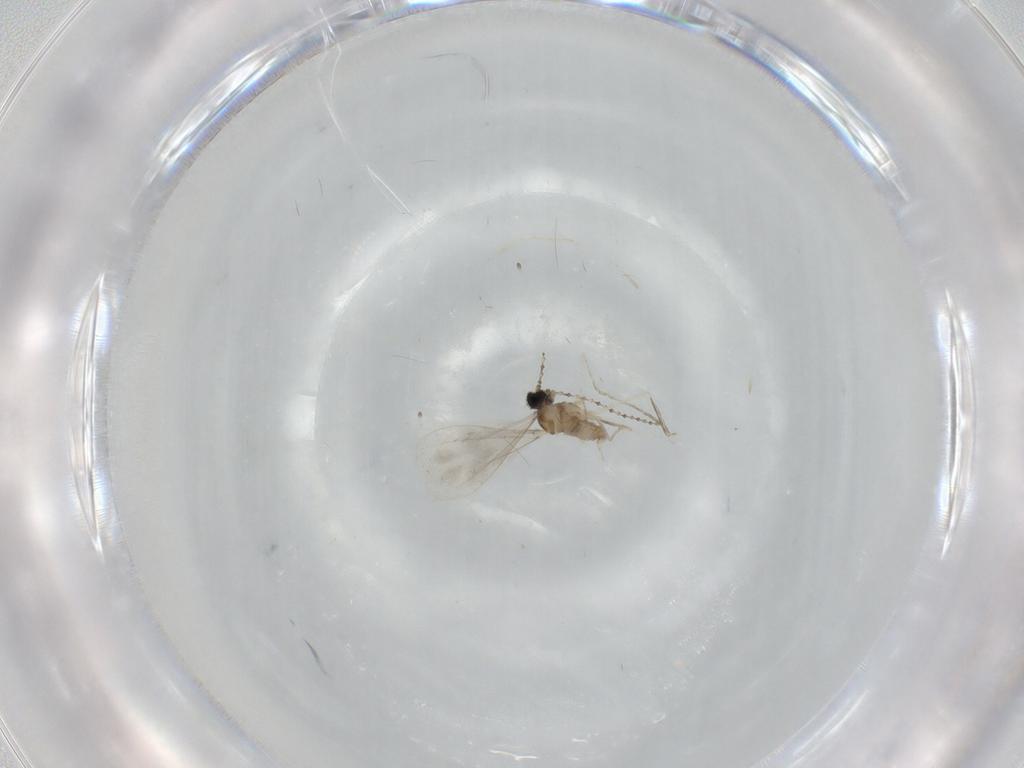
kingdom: Animalia
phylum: Arthropoda
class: Insecta
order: Diptera
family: Cecidomyiidae
